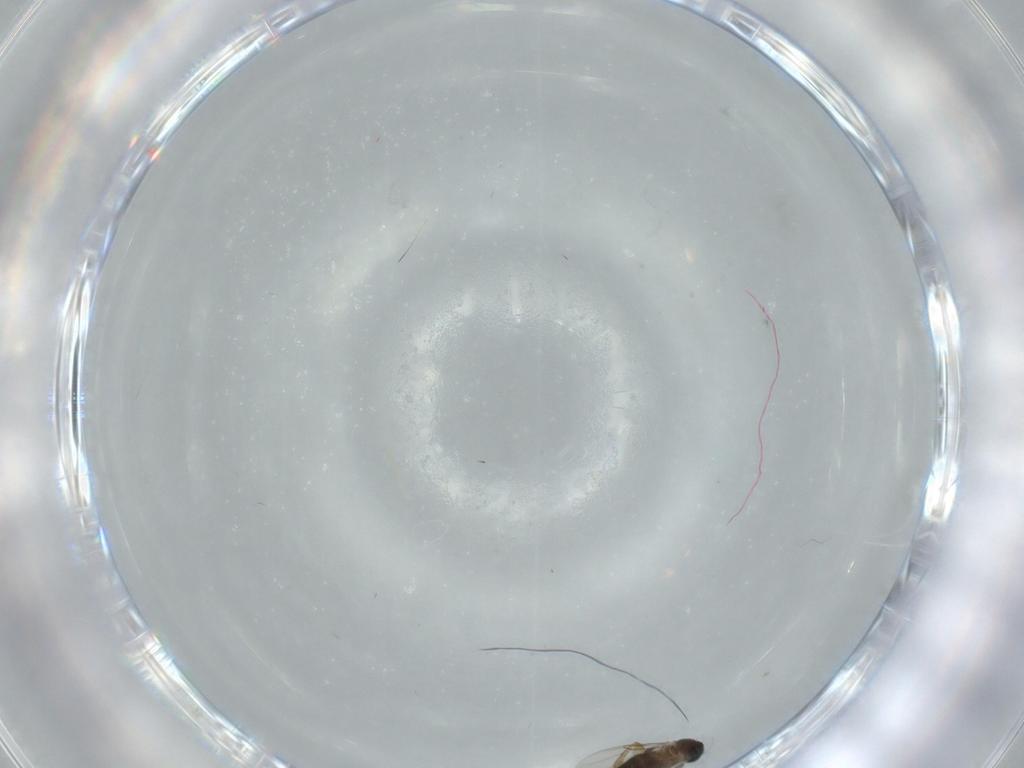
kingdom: Animalia
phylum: Arthropoda
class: Insecta
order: Diptera
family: Phoridae
